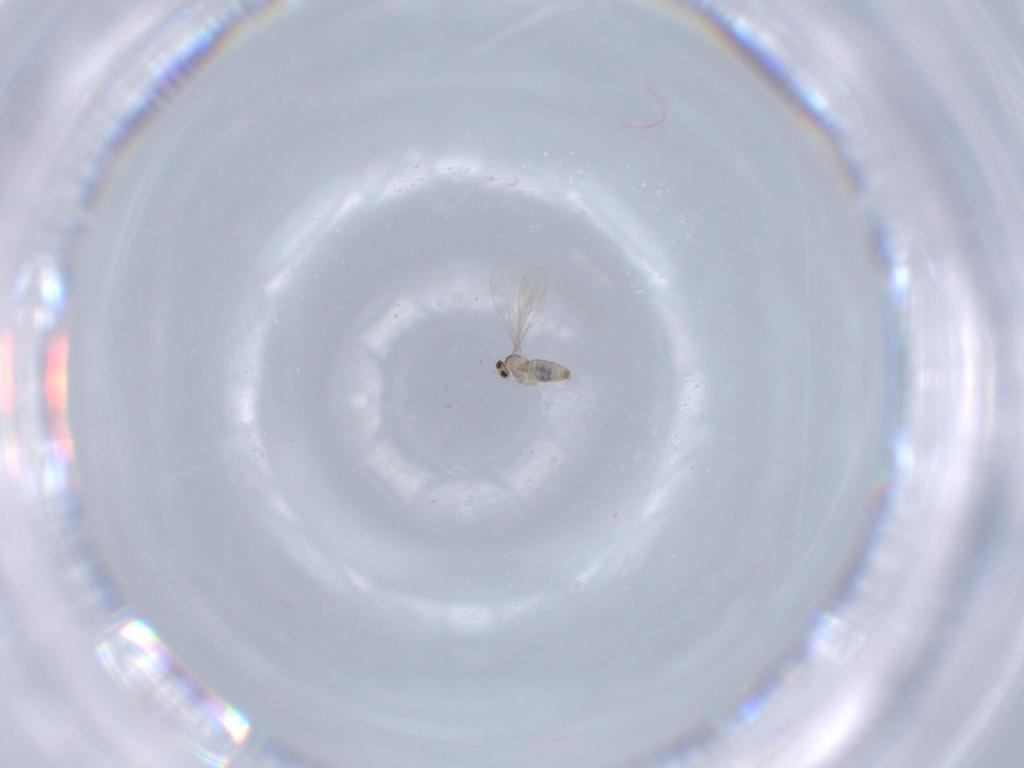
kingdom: Animalia
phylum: Arthropoda
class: Insecta
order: Diptera
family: Cecidomyiidae
